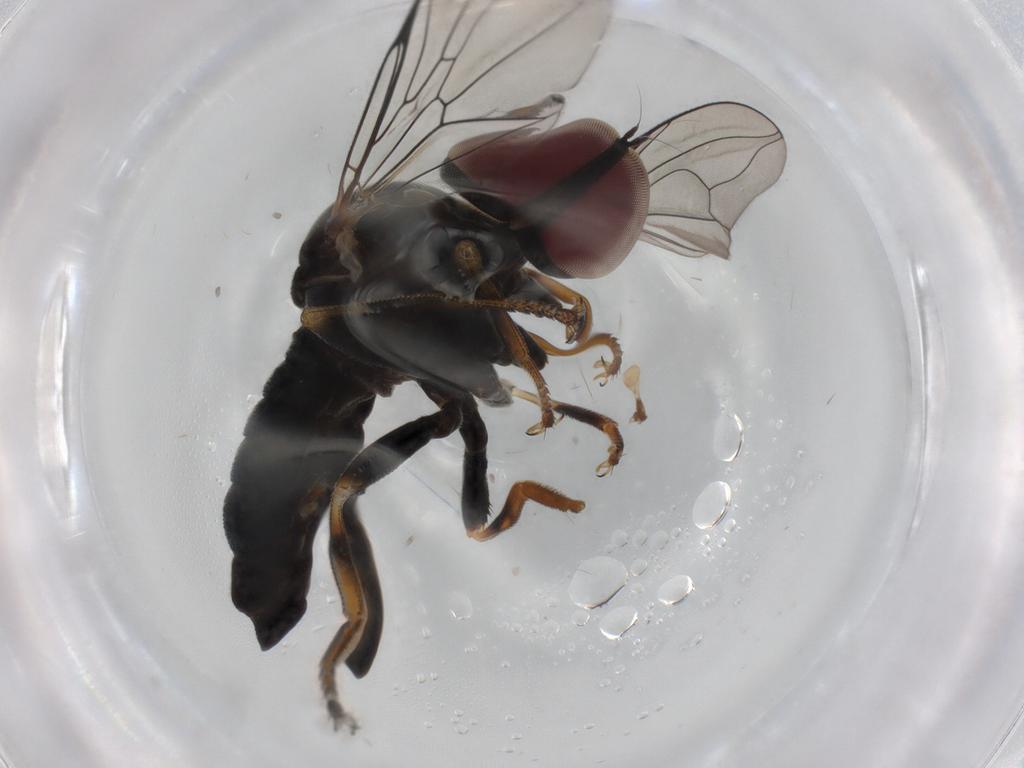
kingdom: Animalia
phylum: Arthropoda
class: Insecta
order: Diptera
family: Chironomidae
